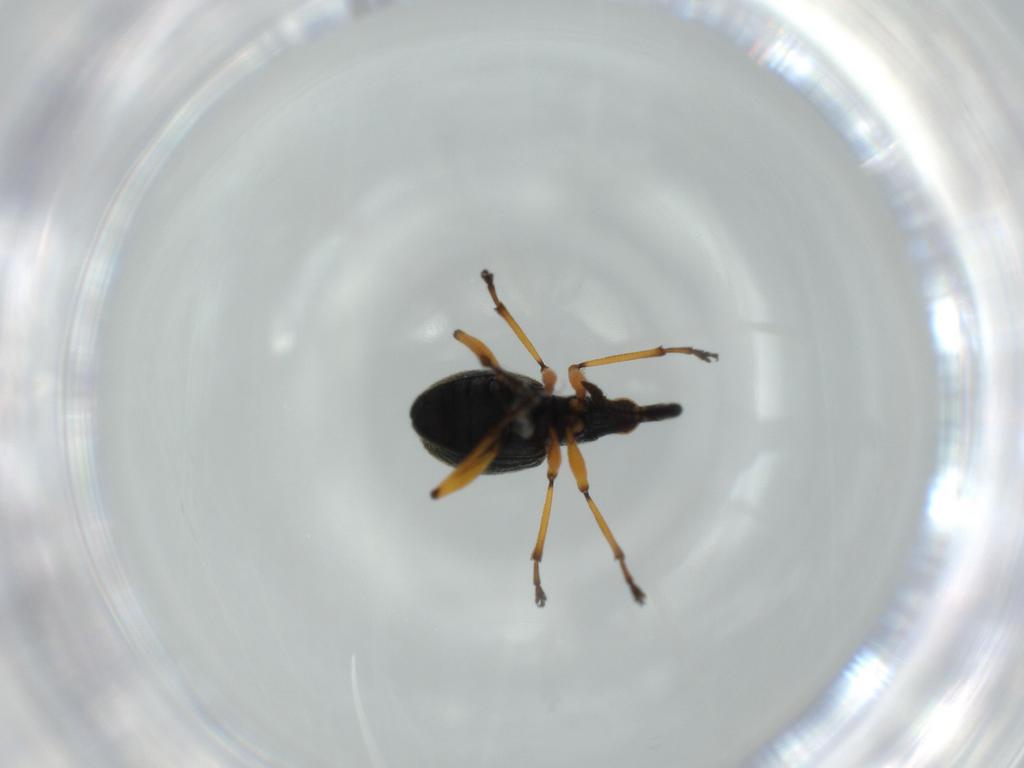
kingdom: Animalia
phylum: Arthropoda
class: Insecta
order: Coleoptera
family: Brentidae
